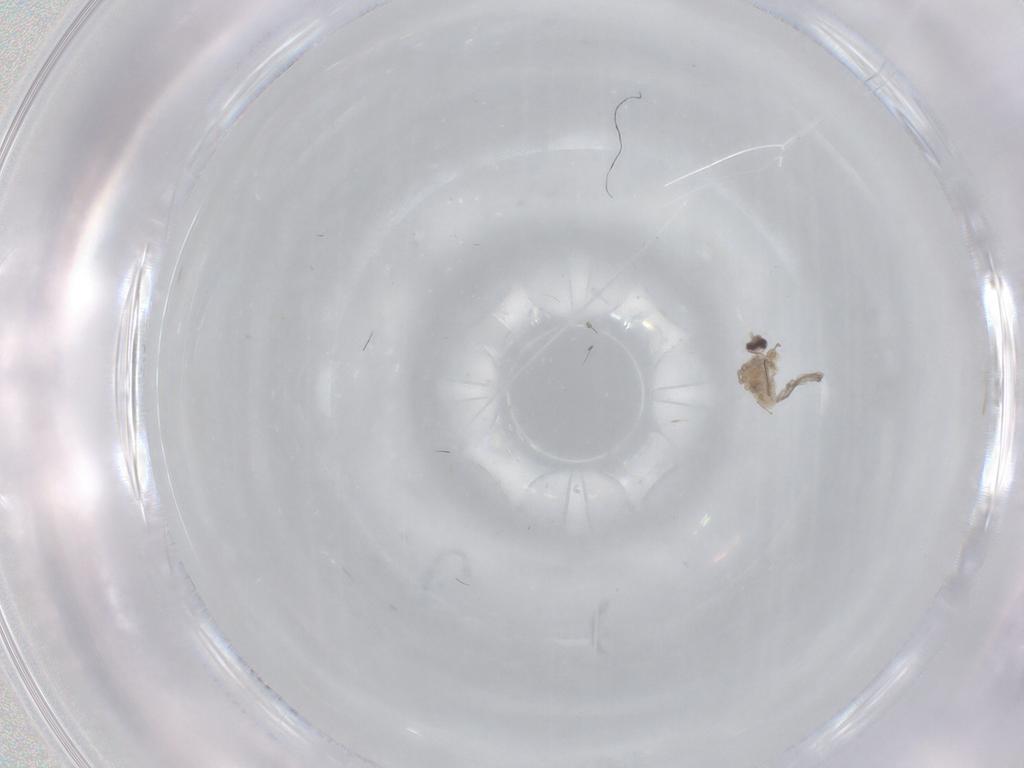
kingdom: Animalia
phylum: Arthropoda
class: Insecta
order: Diptera
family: Cecidomyiidae
